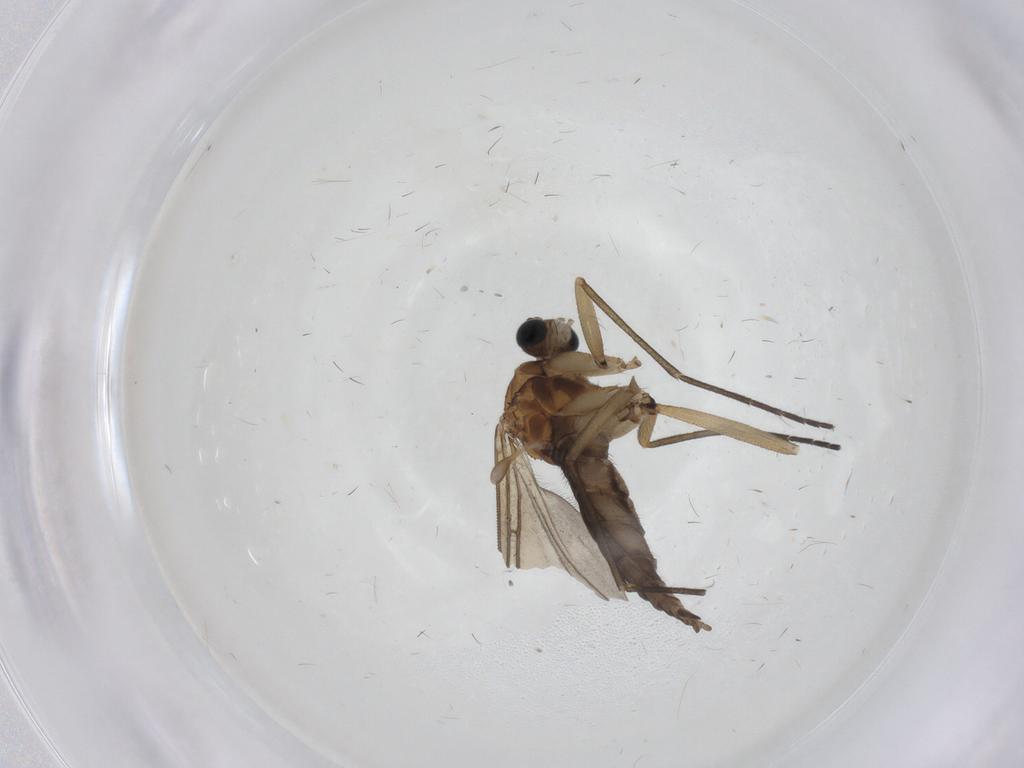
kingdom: Animalia
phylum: Arthropoda
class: Insecta
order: Diptera
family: Sciaridae
